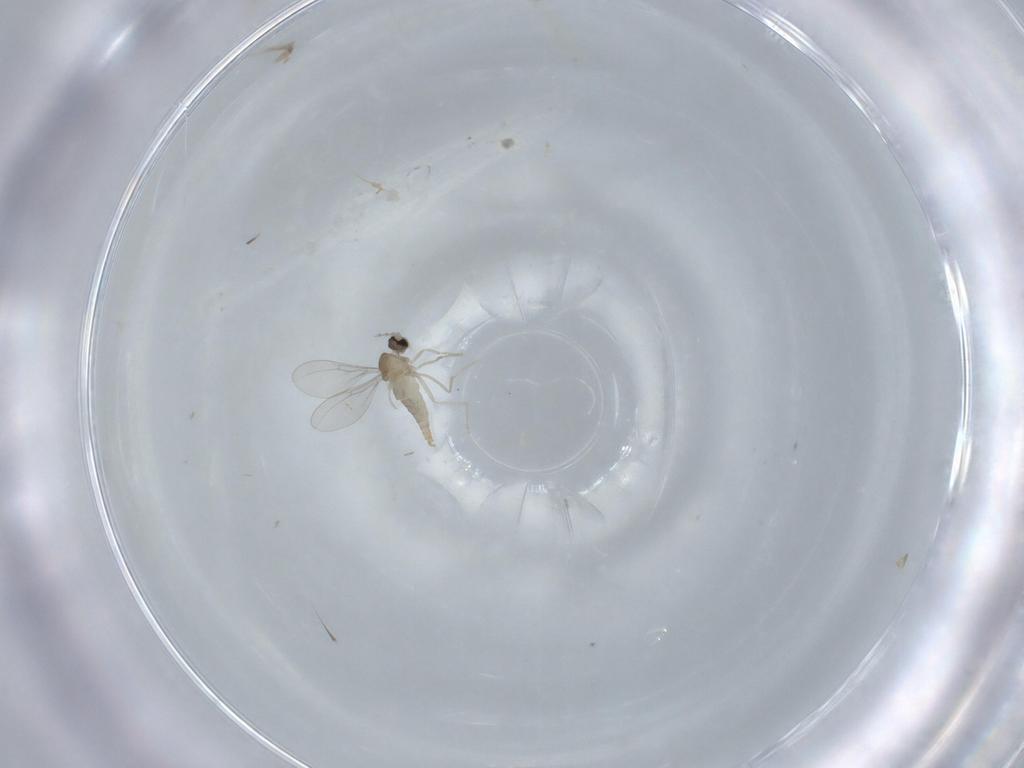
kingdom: Animalia
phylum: Arthropoda
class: Insecta
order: Diptera
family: Cecidomyiidae
